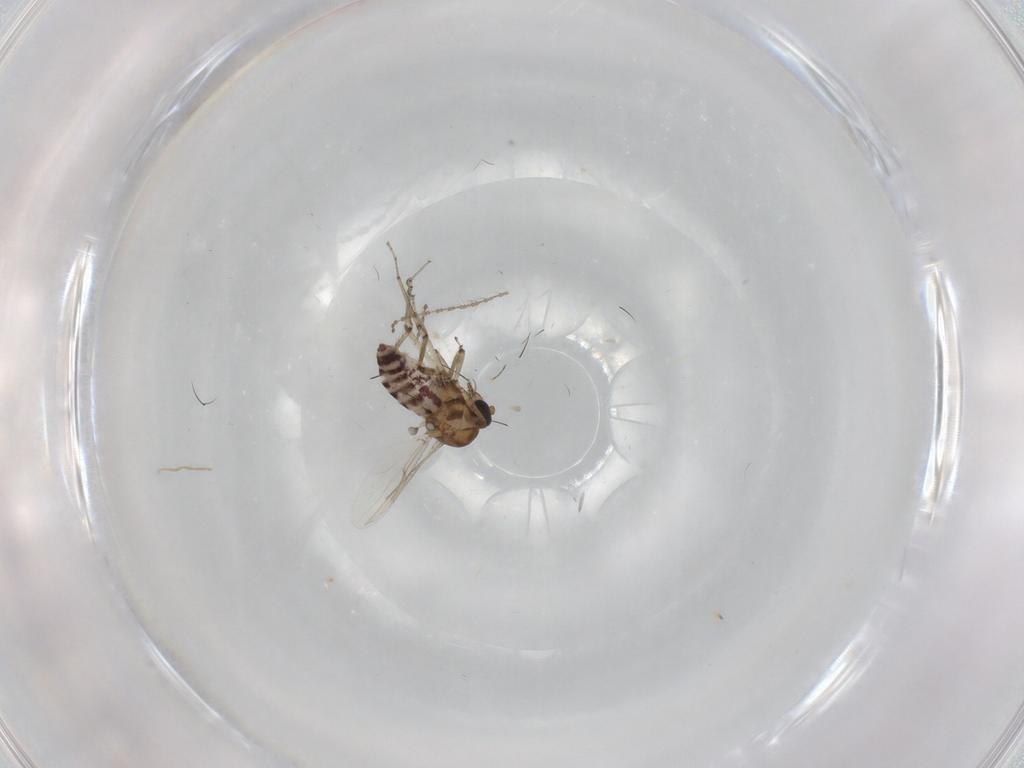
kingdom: Animalia
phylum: Arthropoda
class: Insecta
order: Diptera
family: Ceratopogonidae
